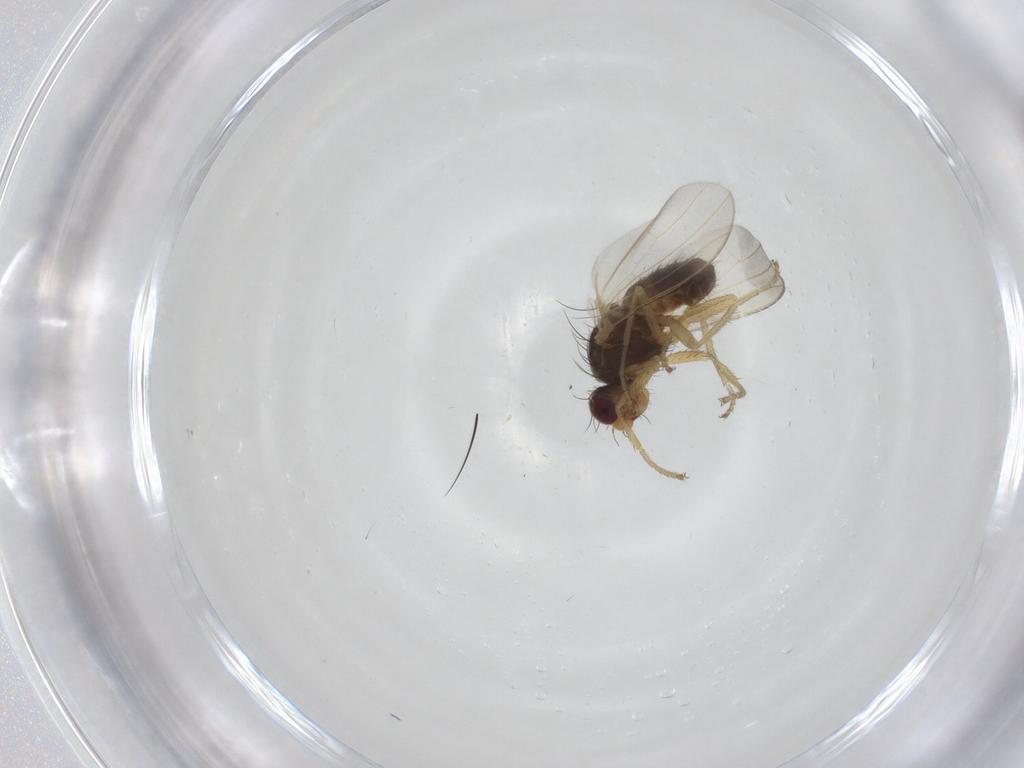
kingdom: Animalia
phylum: Arthropoda
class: Insecta
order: Diptera
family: Heleomyzidae
